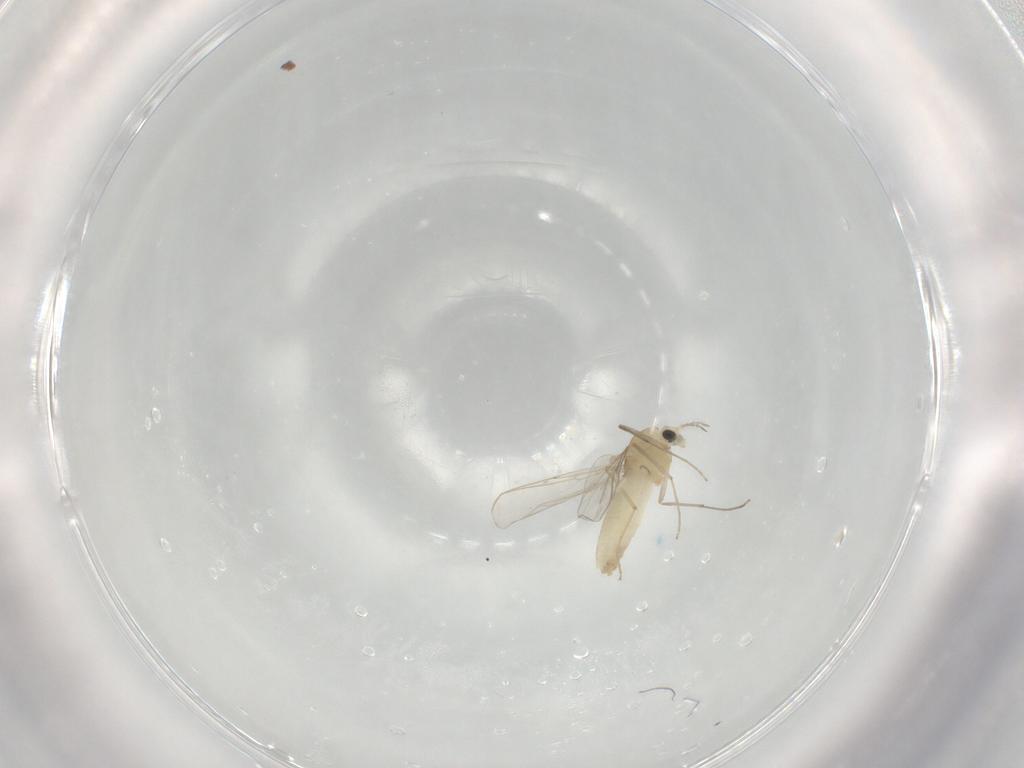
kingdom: Animalia
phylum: Arthropoda
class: Insecta
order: Diptera
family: Chironomidae
